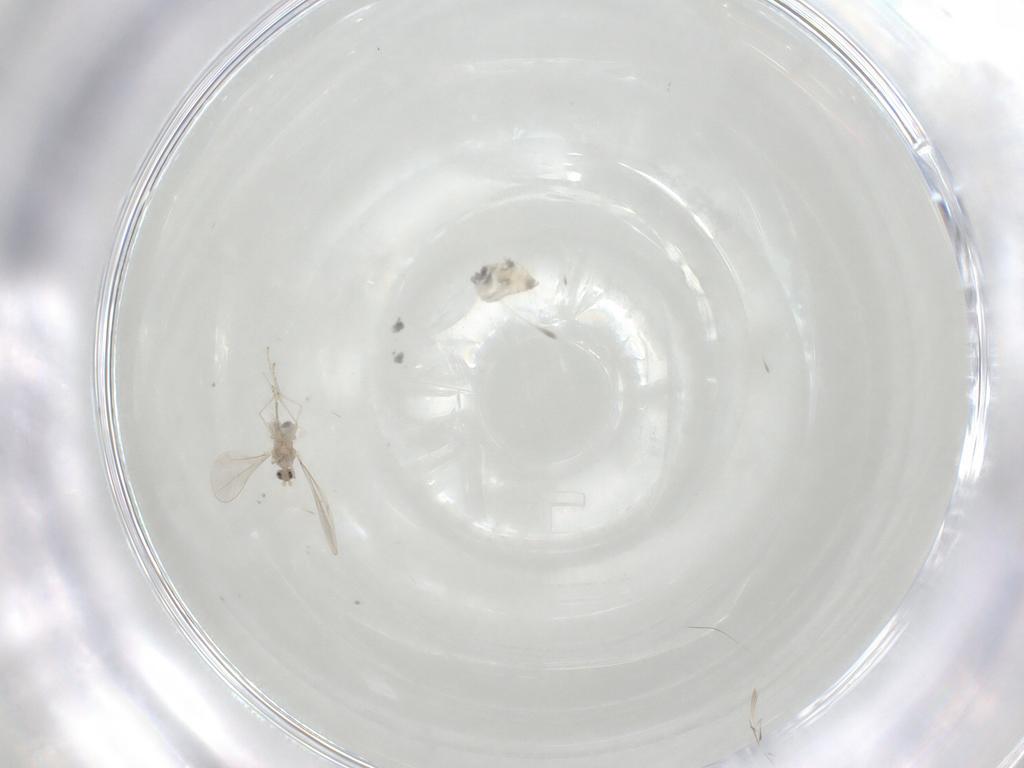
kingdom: Animalia
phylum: Arthropoda
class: Insecta
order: Diptera
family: Cecidomyiidae
